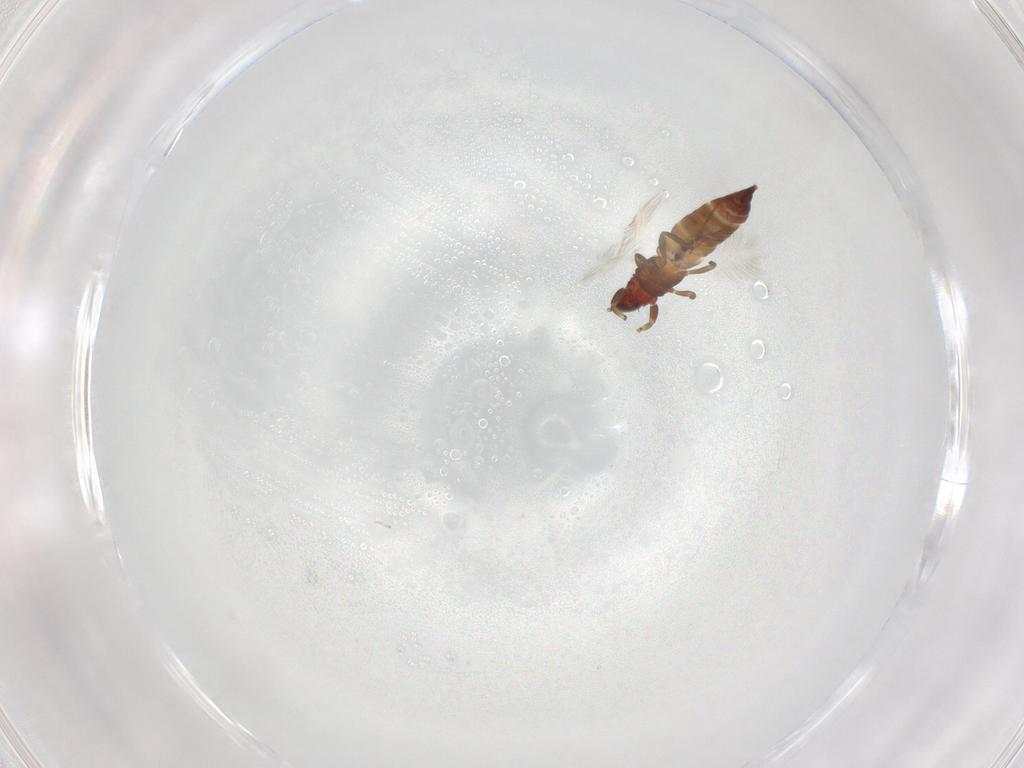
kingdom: Animalia
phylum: Arthropoda
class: Insecta
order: Thysanoptera
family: Phlaeothripidae
